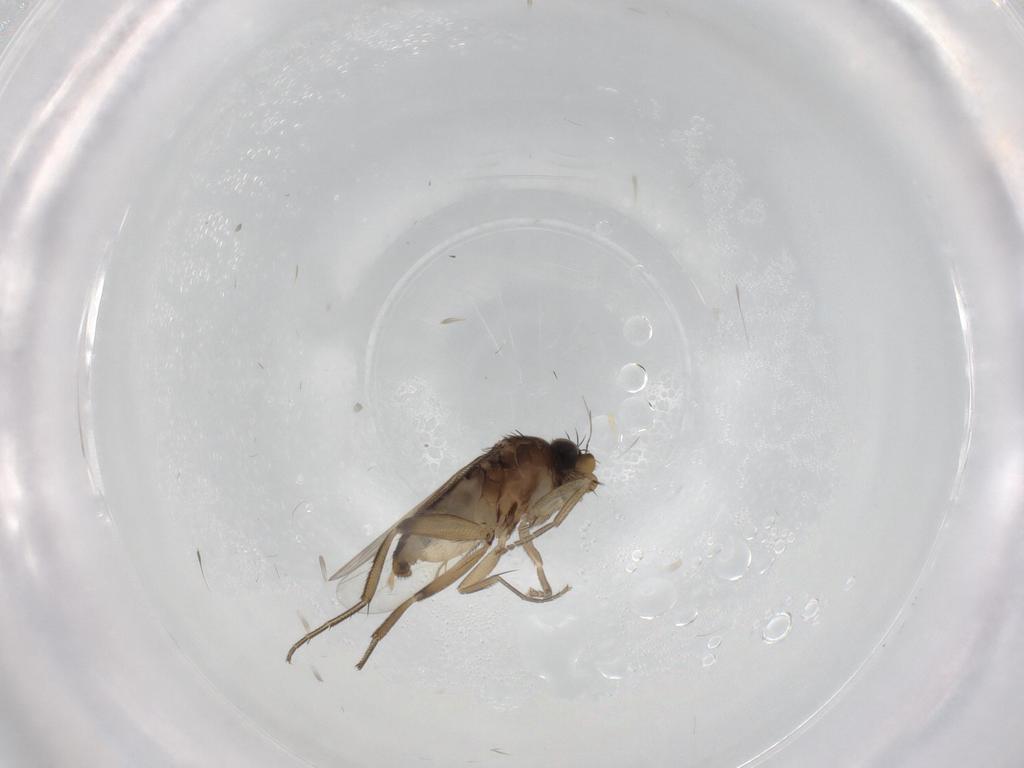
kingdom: Animalia
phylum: Arthropoda
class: Insecta
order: Diptera
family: Phoridae
